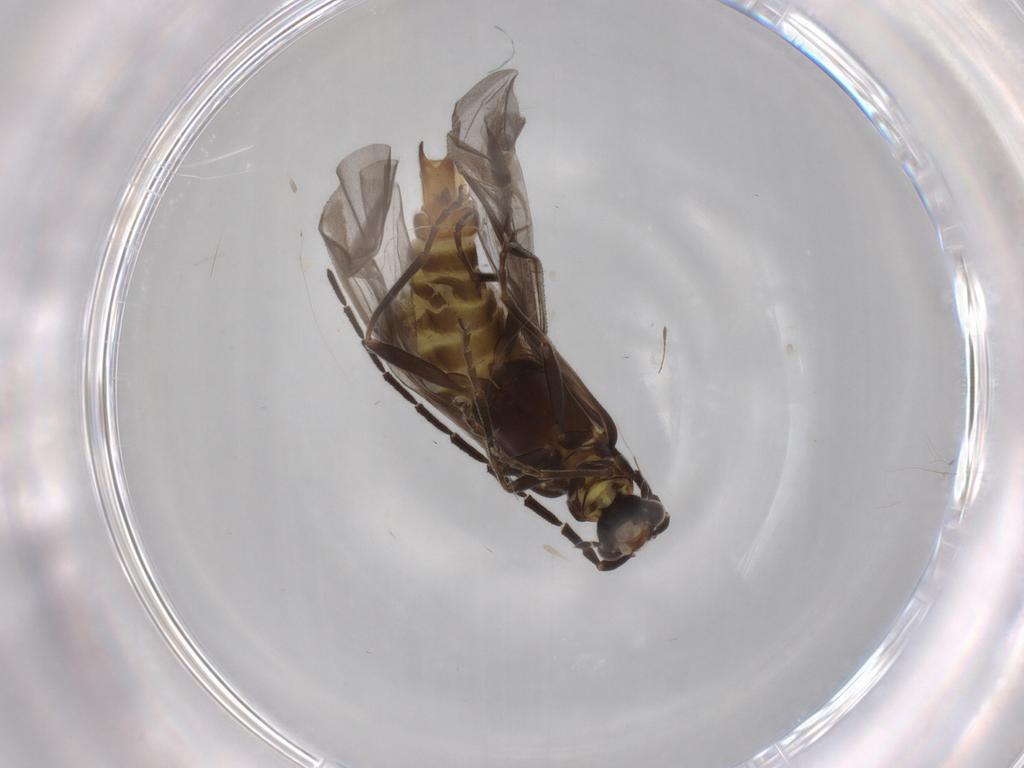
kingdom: Animalia
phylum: Arthropoda
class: Insecta
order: Coleoptera
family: Cantharidae
